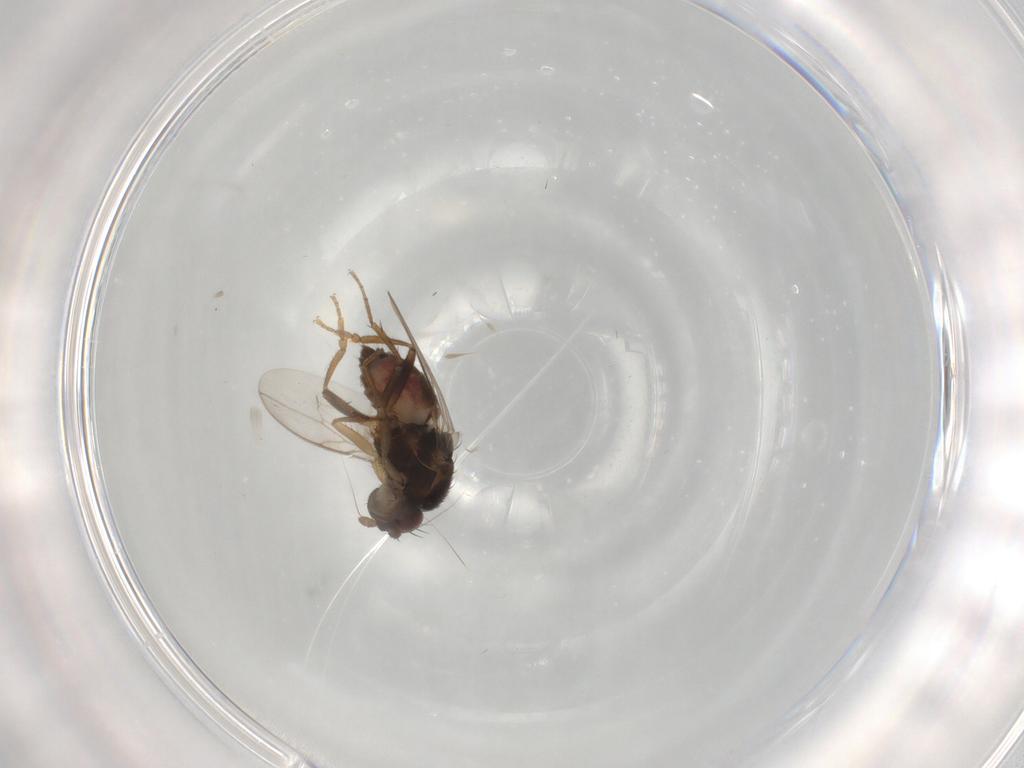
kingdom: Animalia
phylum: Arthropoda
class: Insecta
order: Diptera
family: Sphaeroceridae
